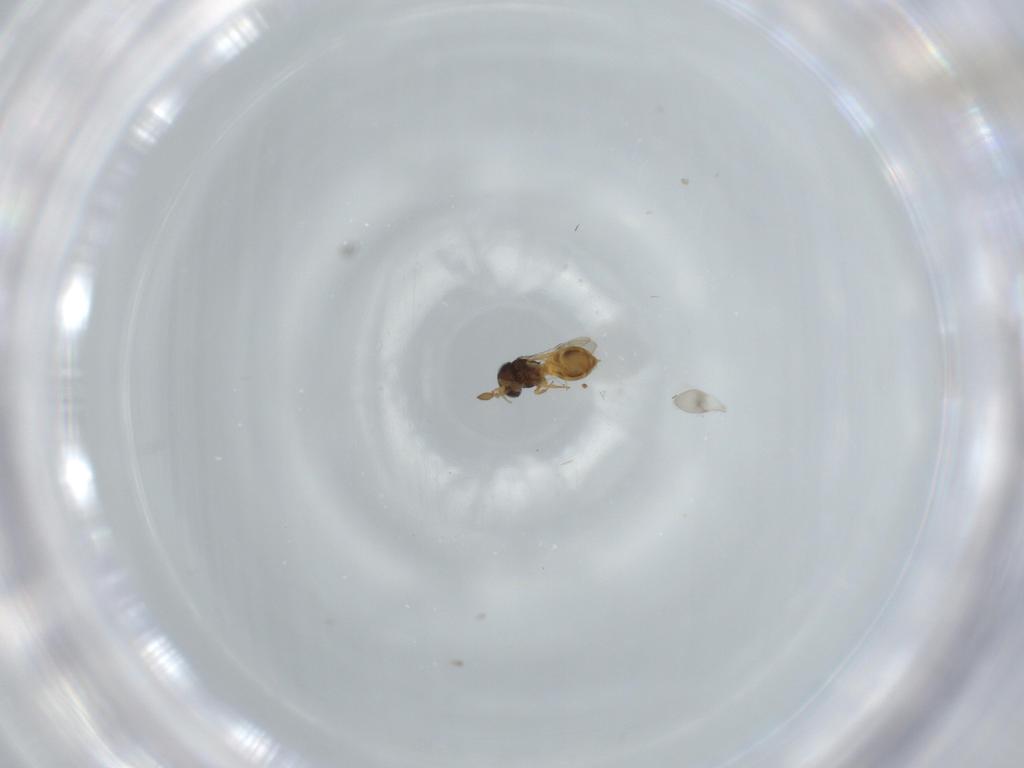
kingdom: Animalia
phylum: Arthropoda
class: Insecta
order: Hymenoptera
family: Scelionidae
